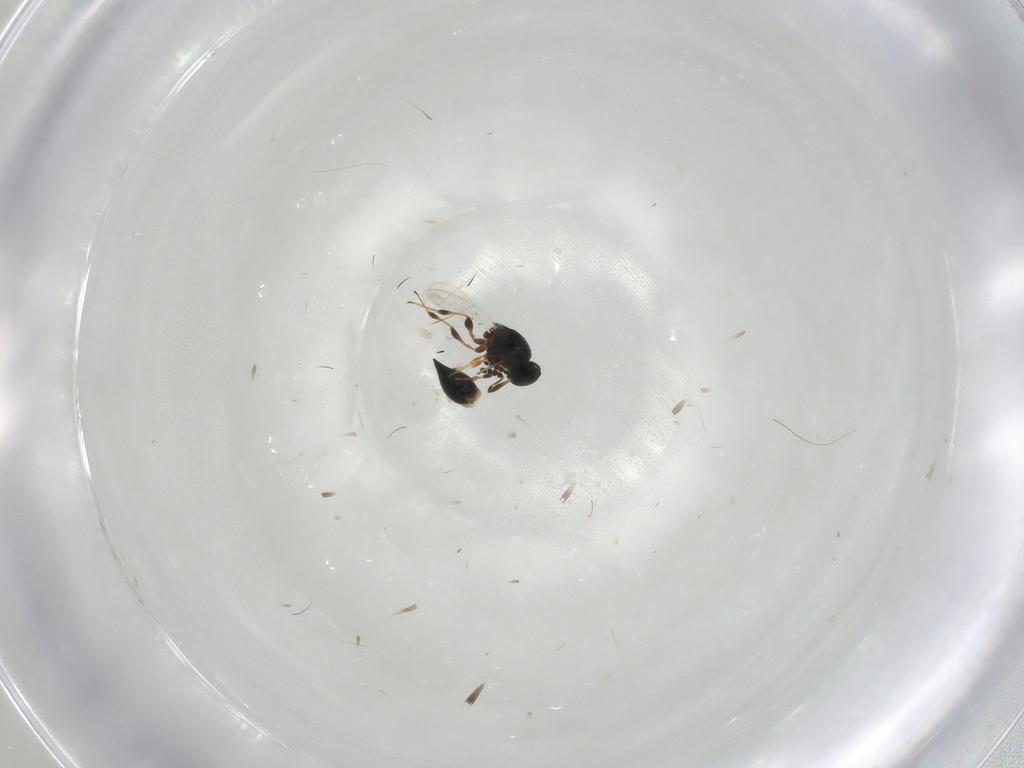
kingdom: Animalia
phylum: Arthropoda
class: Insecta
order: Hymenoptera
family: Platygastridae
